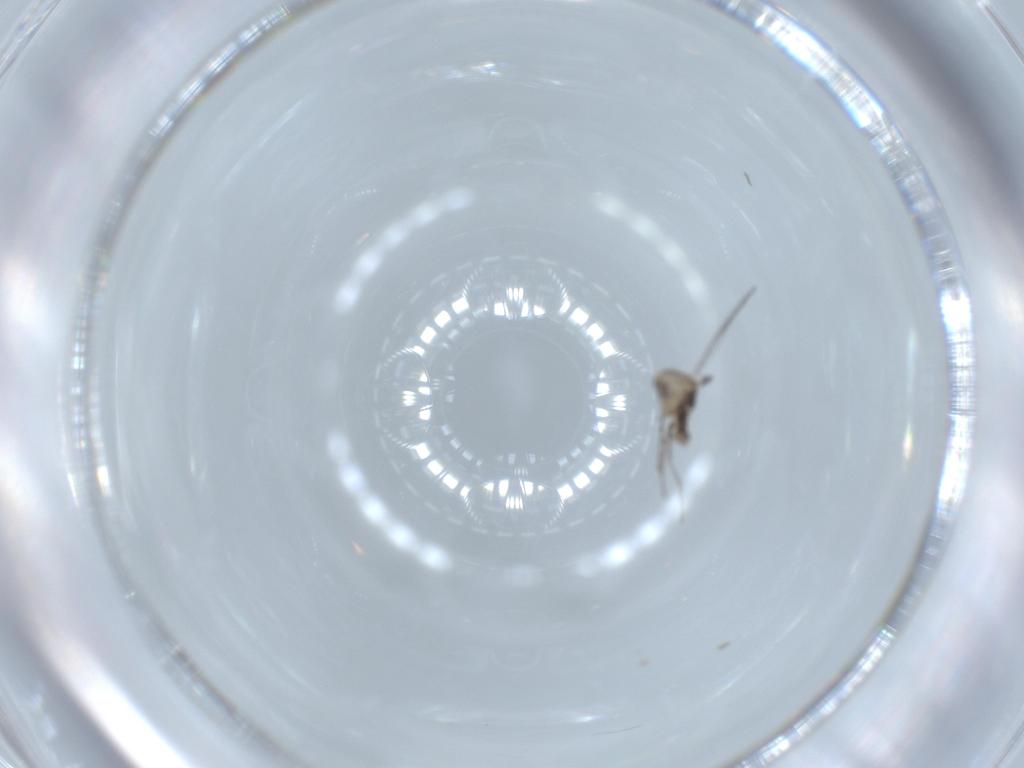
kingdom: Animalia
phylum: Arthropoda
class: Insecta
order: Diptera
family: Chironomidae
